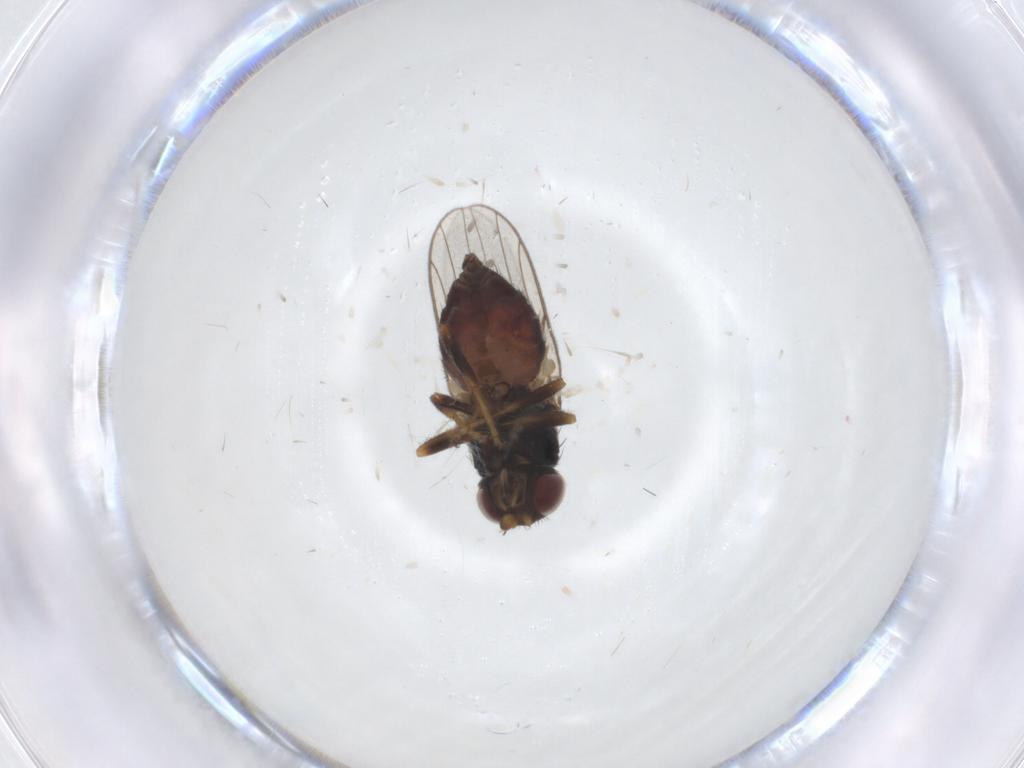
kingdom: Animalia
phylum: Arthropoda
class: Insecta
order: Diptera
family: Chloropidae
